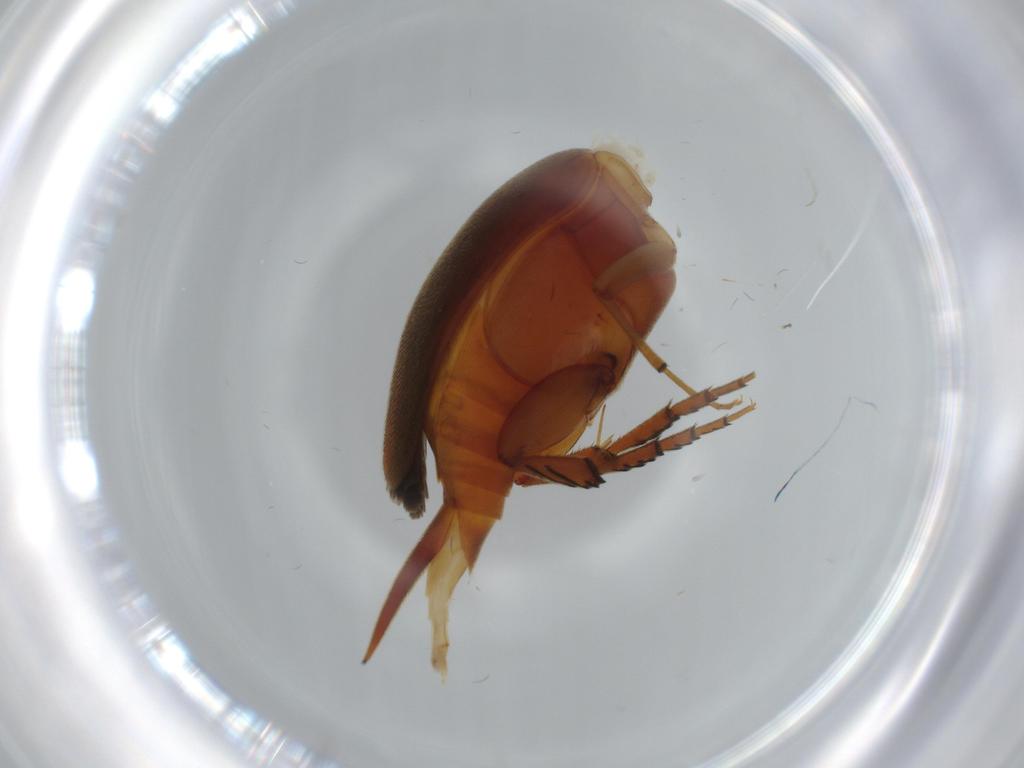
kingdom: Animalia
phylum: Arthropoda
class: Insecta
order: Coleoptera
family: Mordellidae
